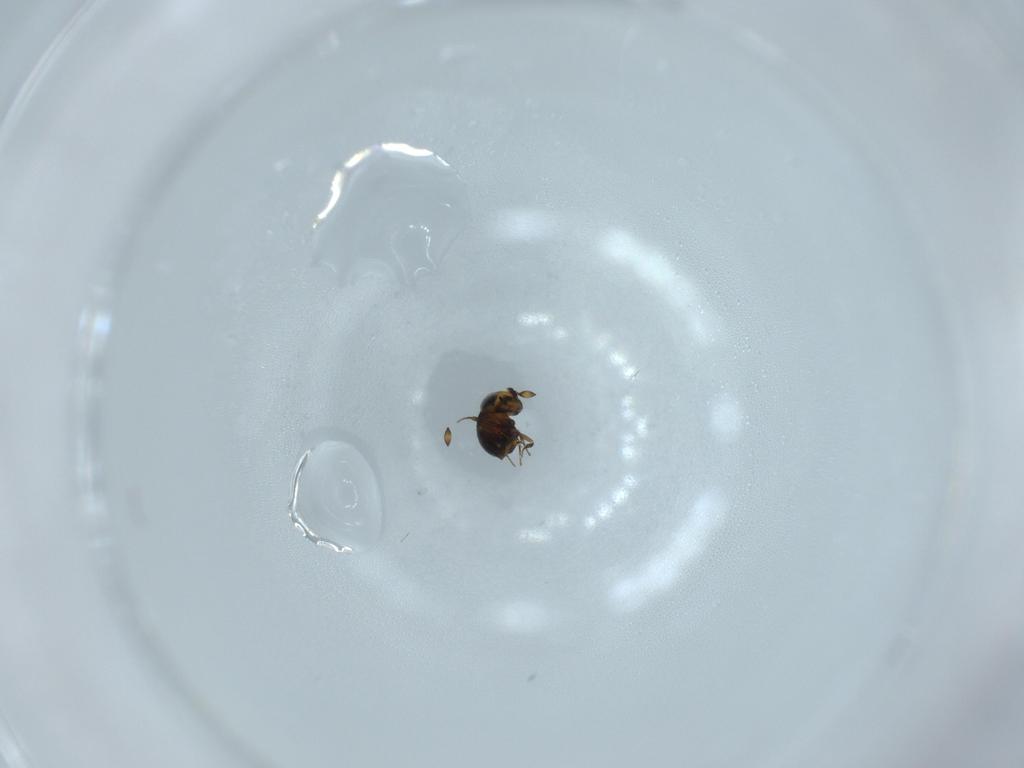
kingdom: Animalia
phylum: Arthropoda
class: Insecta
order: Hymenoptera
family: Scelionidae
